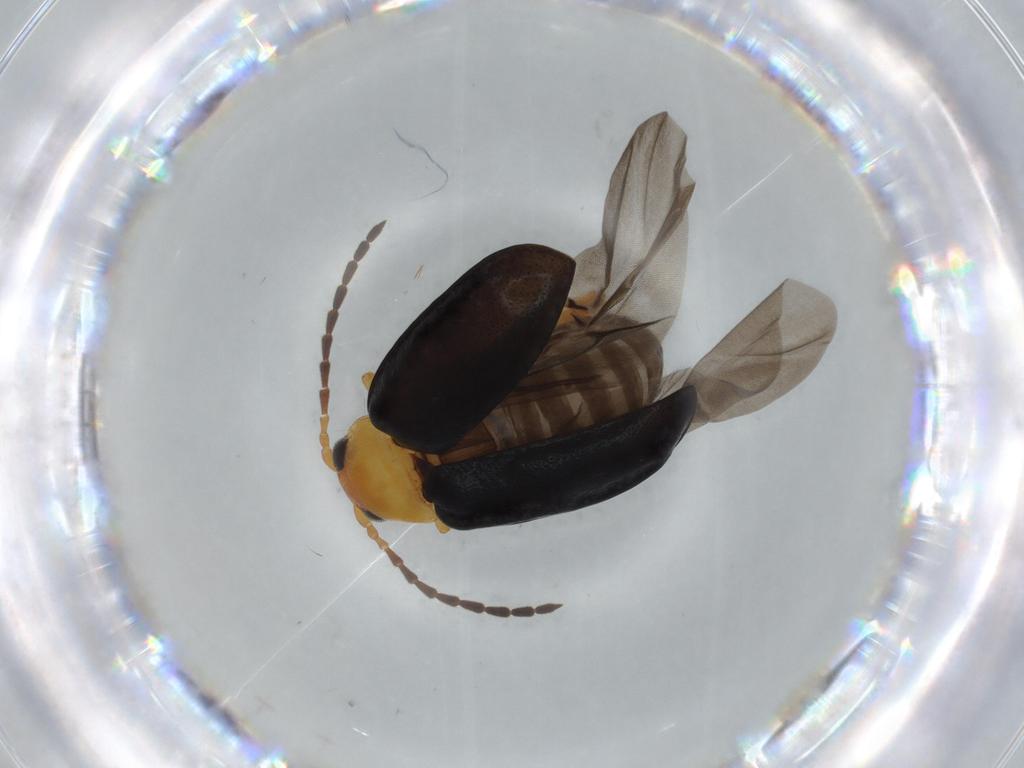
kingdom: Animalia
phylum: Arthropoda
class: Insecta
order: Coleoptera
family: Chrysomelidae
